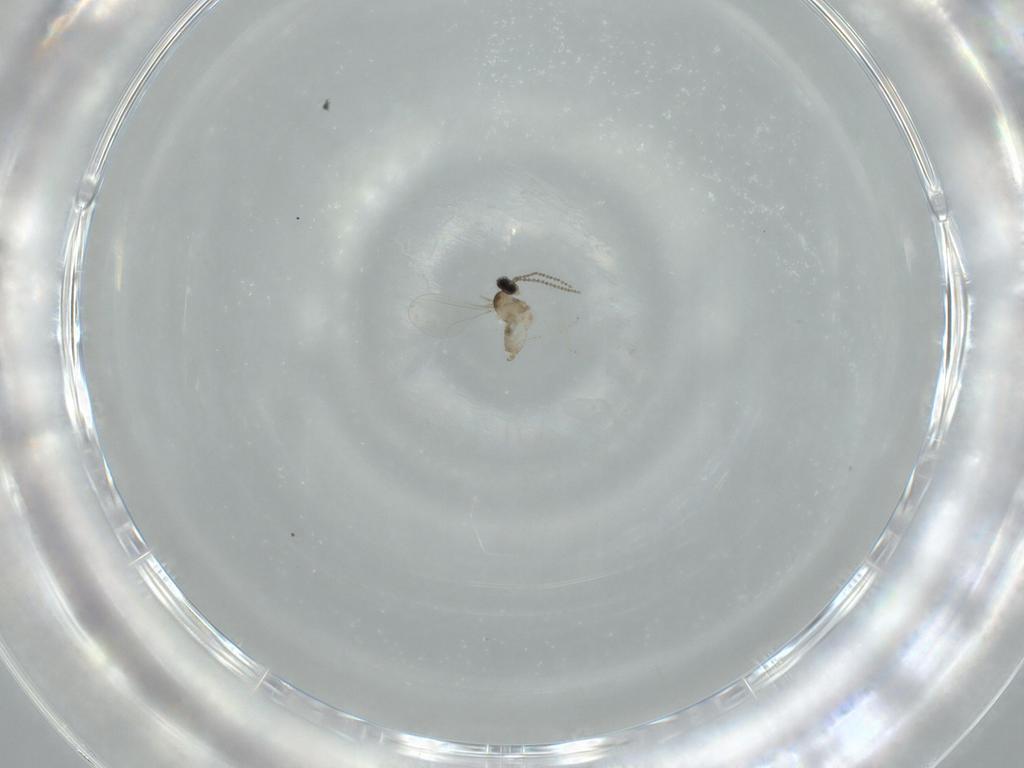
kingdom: Animalia
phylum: Arthropoda
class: Insecta
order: Diptera
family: Cecidomyiidae
